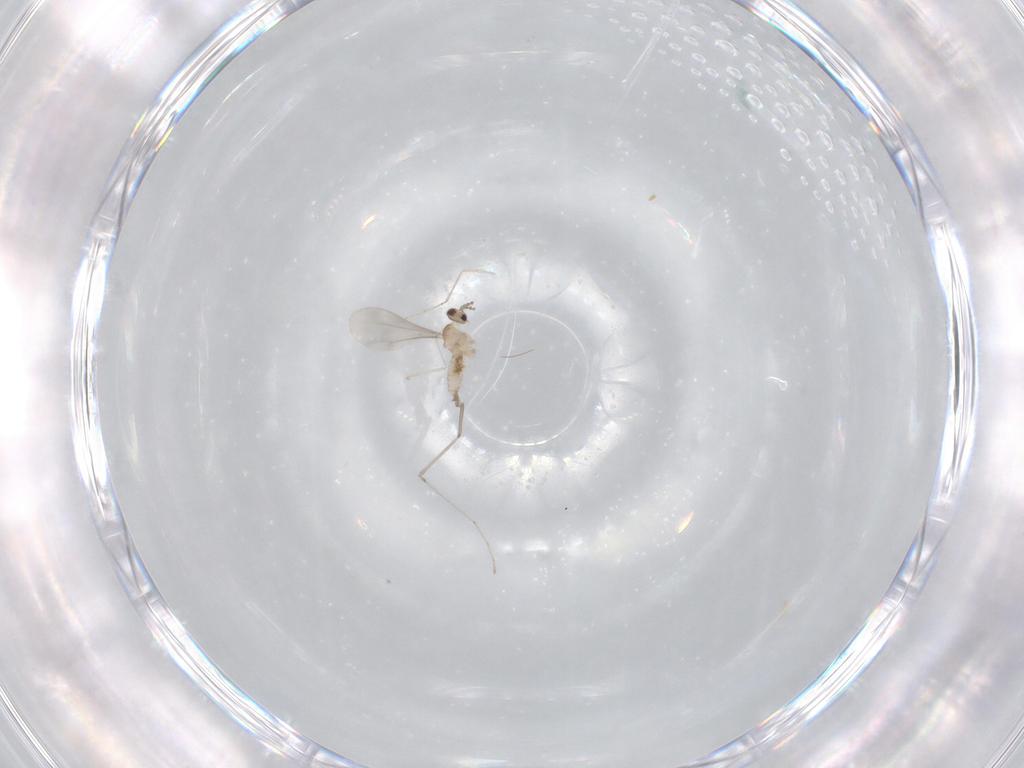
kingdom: Animalia
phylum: Arthropoda
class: Insecta
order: Diptera
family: Cecidomyiidae
